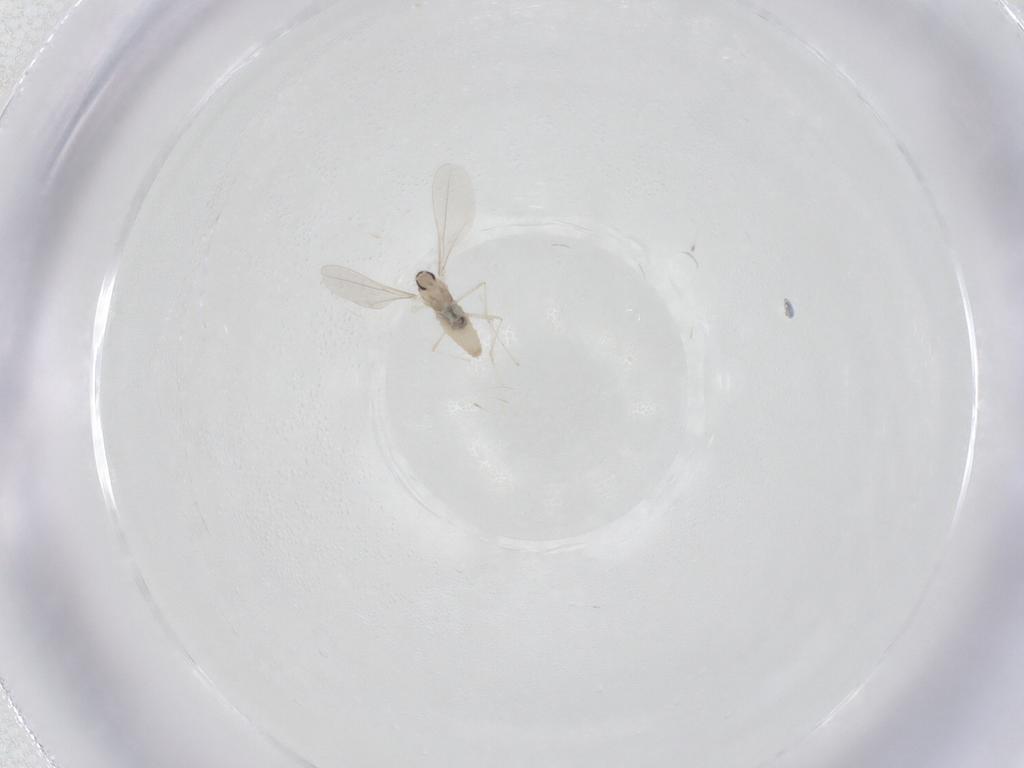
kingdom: Animalia
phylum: Arthropoda
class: Insecta
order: Diptera
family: Cecidomyiidae
